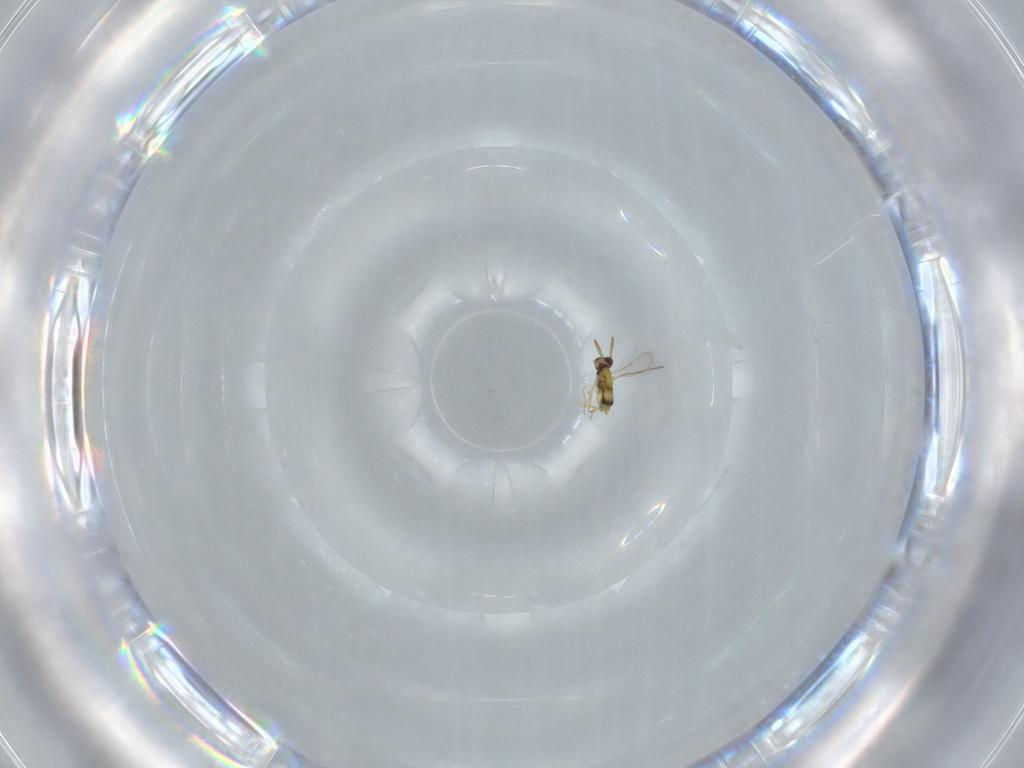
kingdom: Animalia
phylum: Arthropoda
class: Insecta
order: Hymenoptera
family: Aphelinidae
